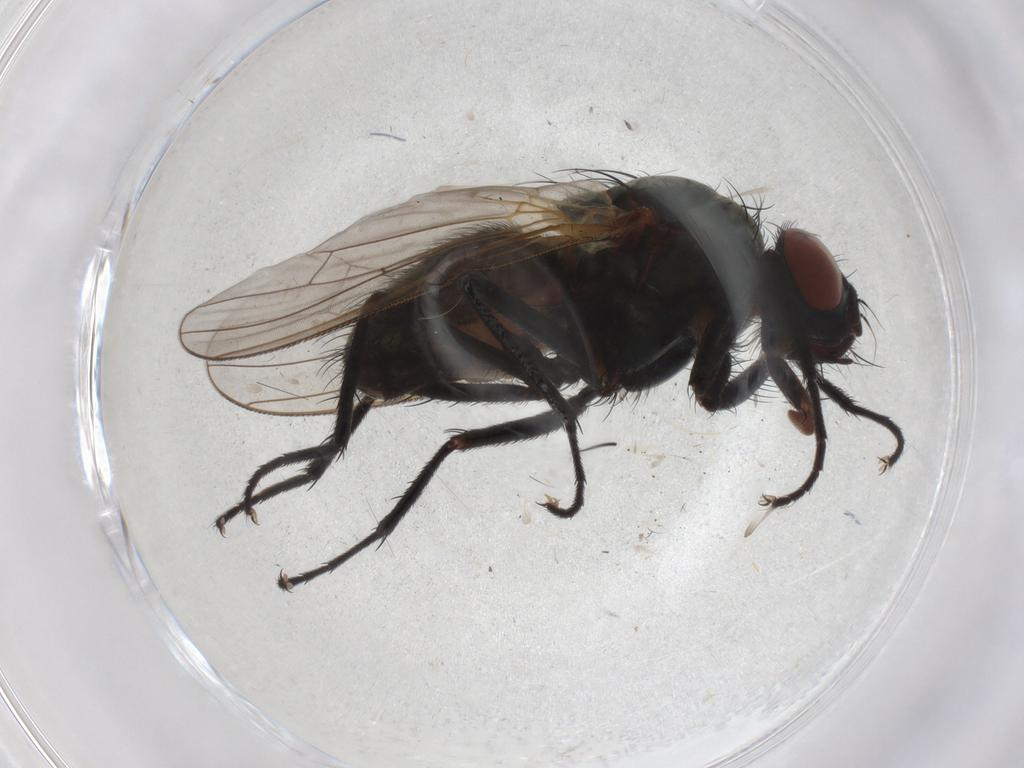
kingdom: Animalia
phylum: Arthropoda
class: Insecta
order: Diptera
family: Anthomyiidae
